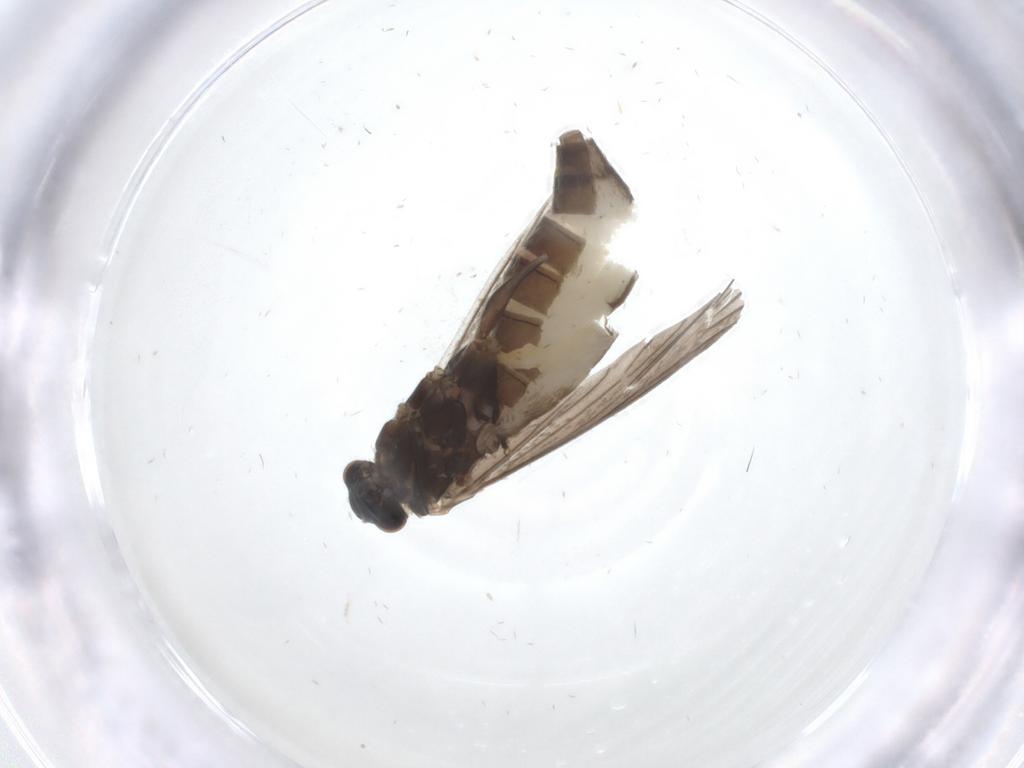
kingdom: Animalia
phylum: Arthropoda
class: Insecta
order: Lepidoptera
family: Micropterigidae
